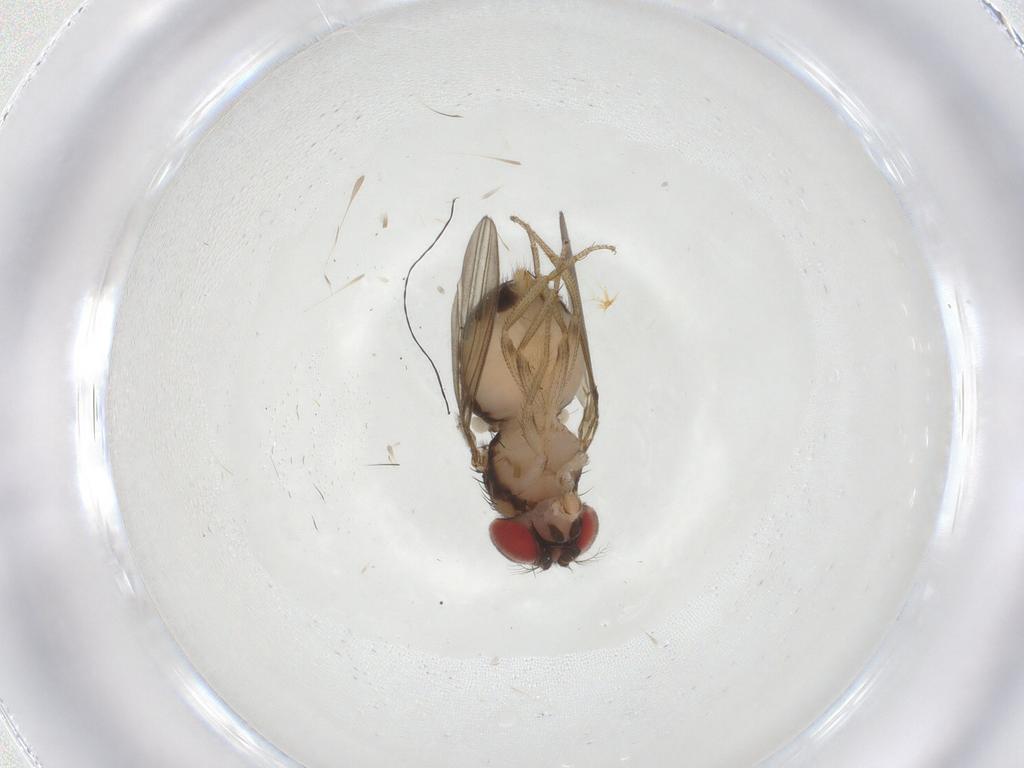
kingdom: Animalia
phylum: Arthropoda
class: Insecta
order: Diptera
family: Drosophilidae
